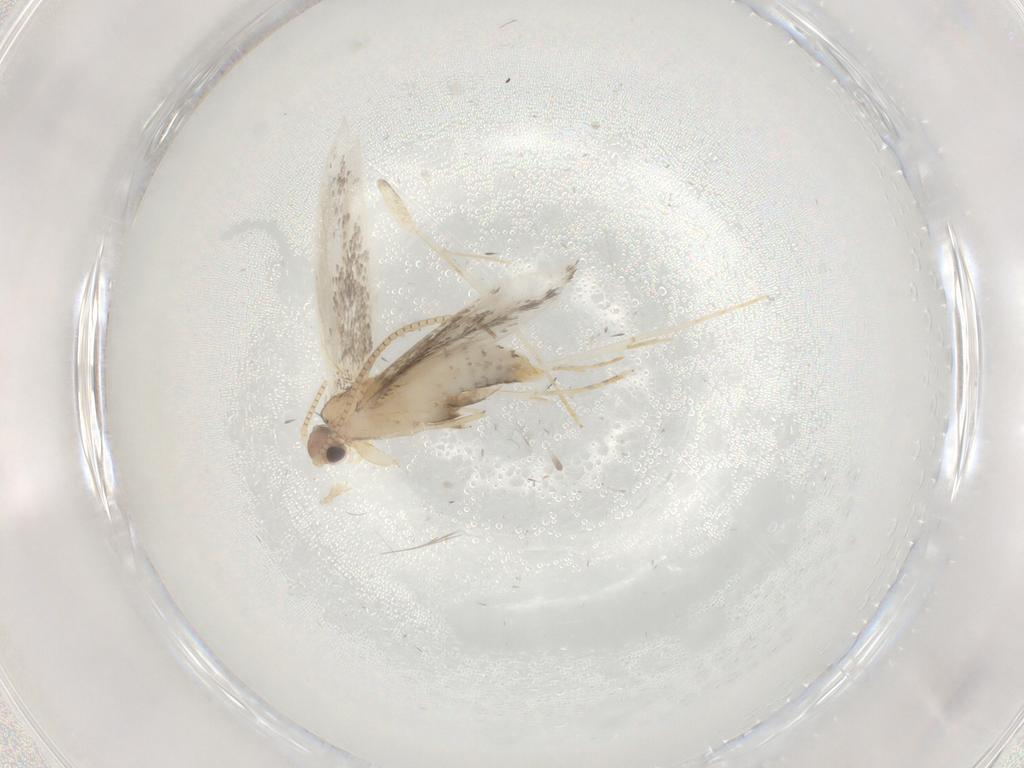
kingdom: Animalia
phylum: Arthropoda
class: Insecta
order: Lepidoptera
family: Tineidae
